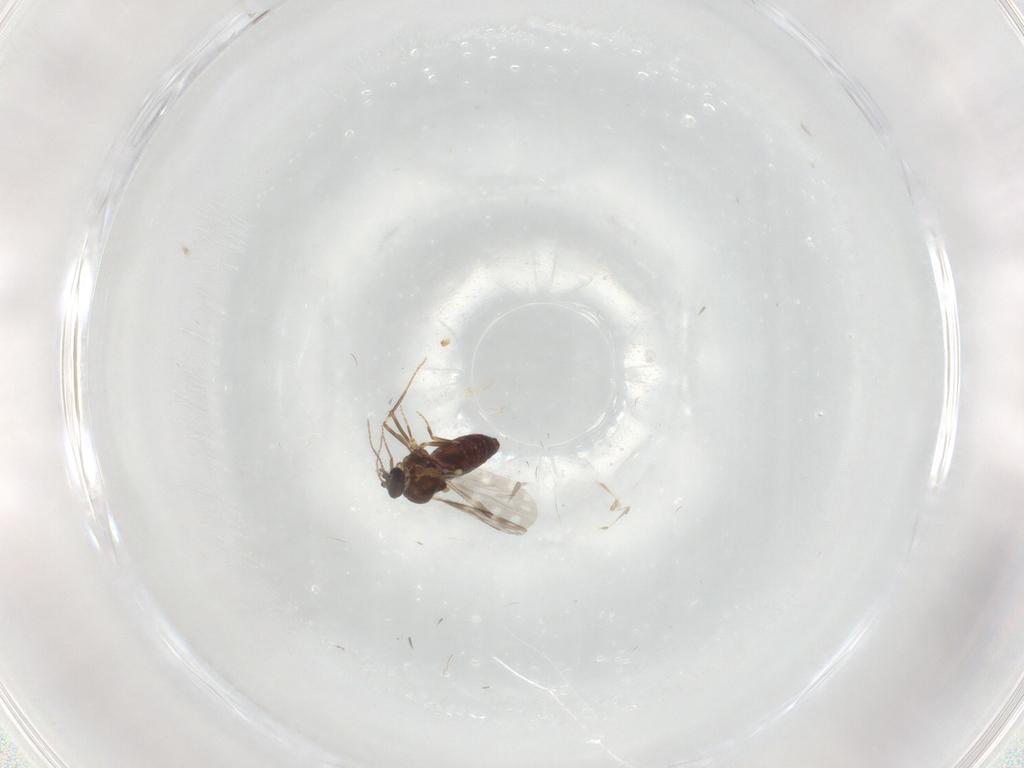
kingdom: Animalia
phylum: Arthropoda
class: Insecta
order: Diptera
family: Ceratopogonidae
